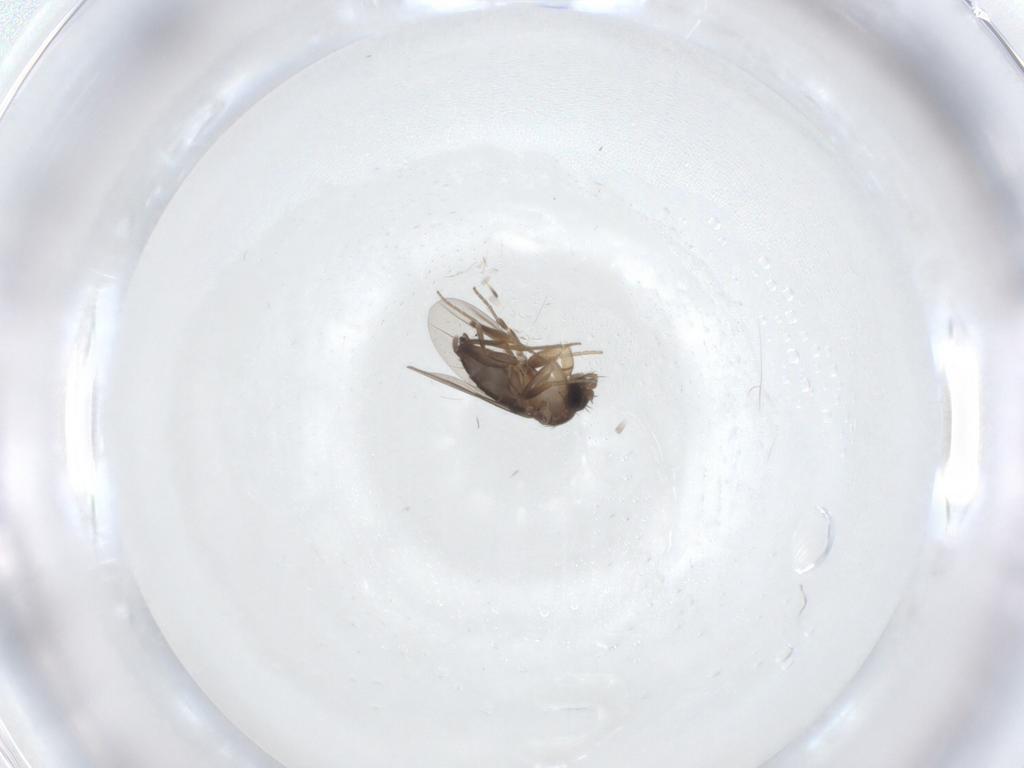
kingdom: Animalia
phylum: Arthropoda
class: Insecta
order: Diptera
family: Phoridae
